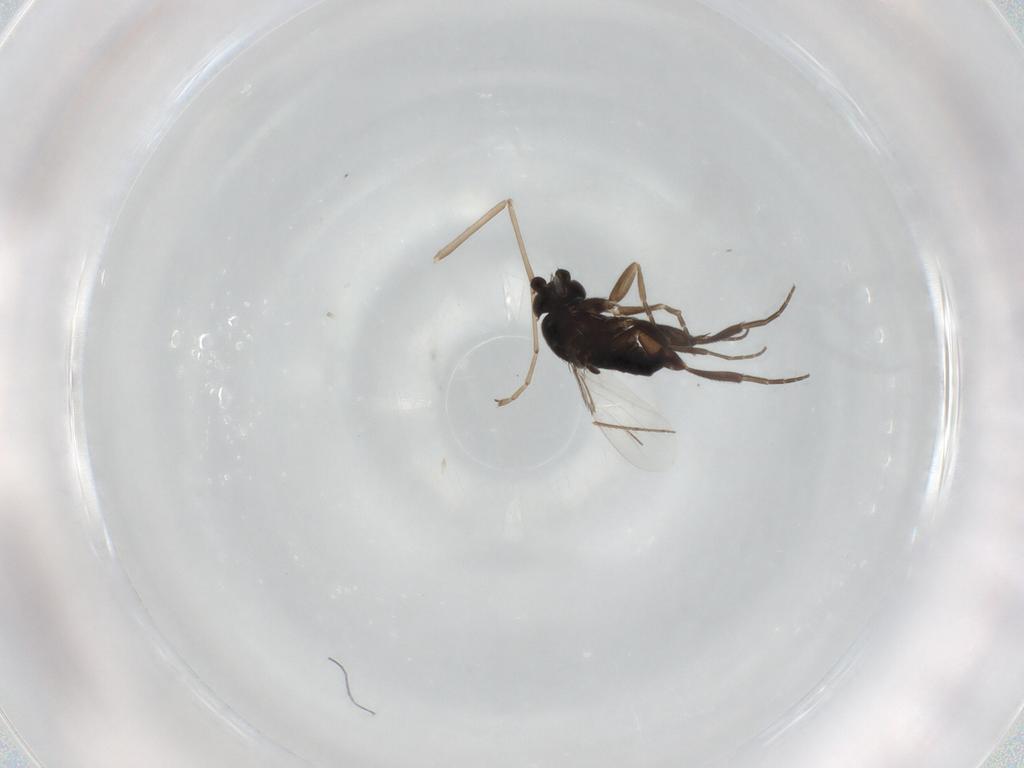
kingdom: Animalia
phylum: Arthropoda
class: Insecta
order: Diptera
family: Phoridae
